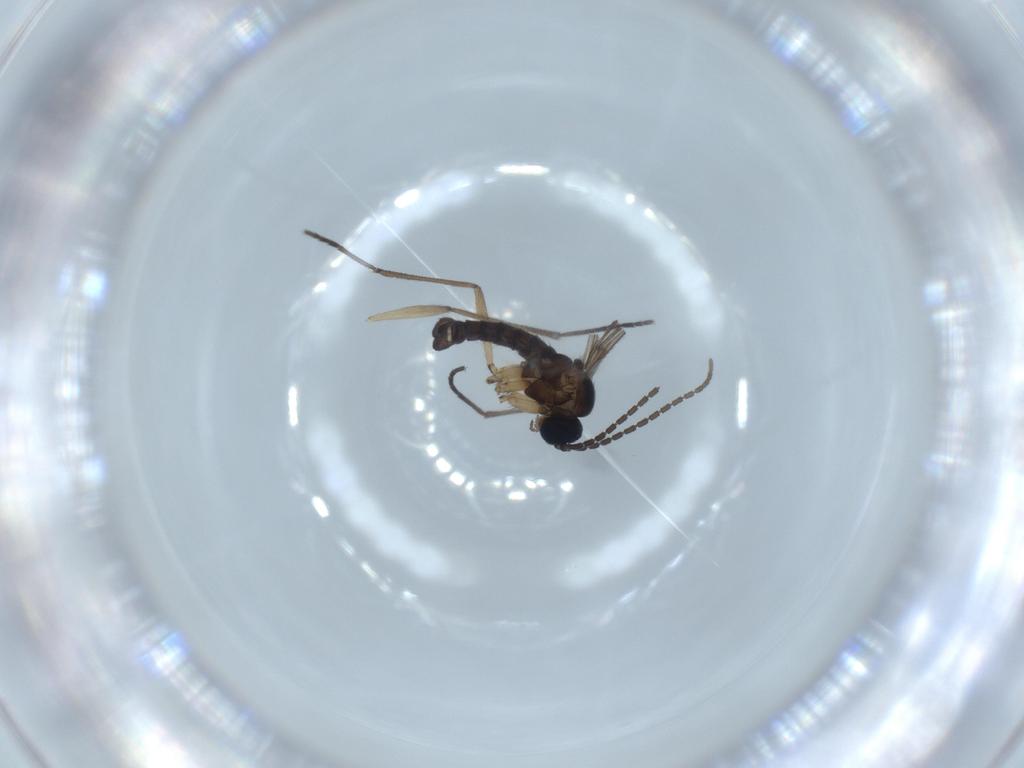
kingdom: Animalia
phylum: Arthropoda
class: Insecta
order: Diptera
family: Sciaridae
